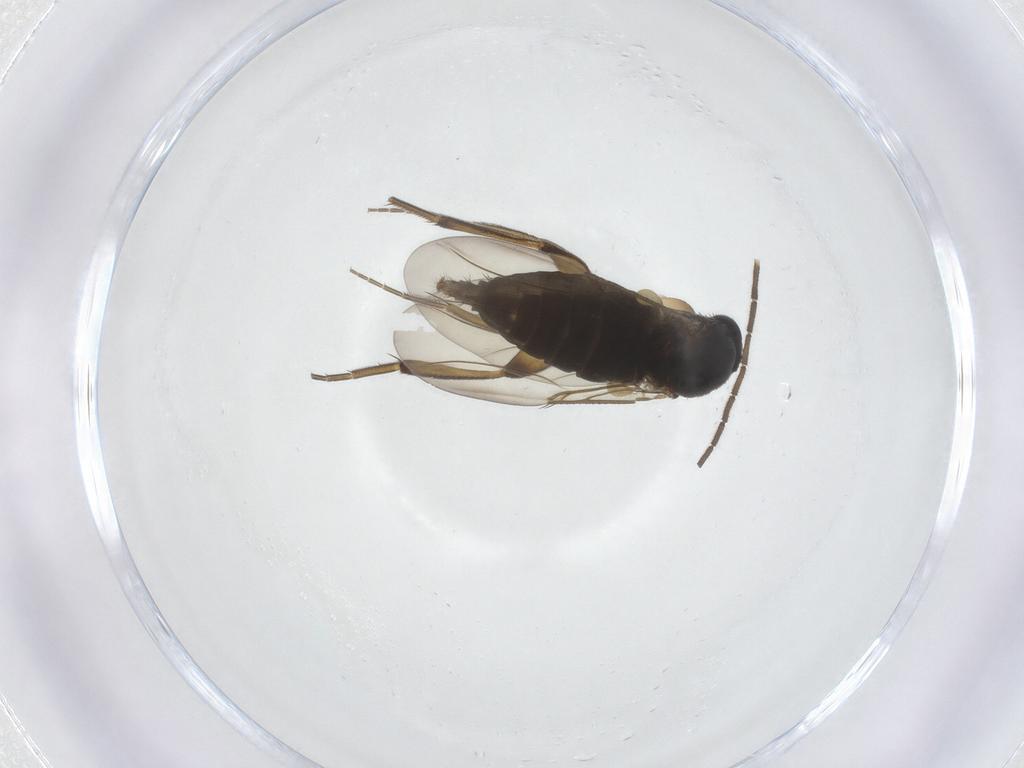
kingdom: Animalia
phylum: Arthropoda
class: Insecta
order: Diptera
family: Phoridae
